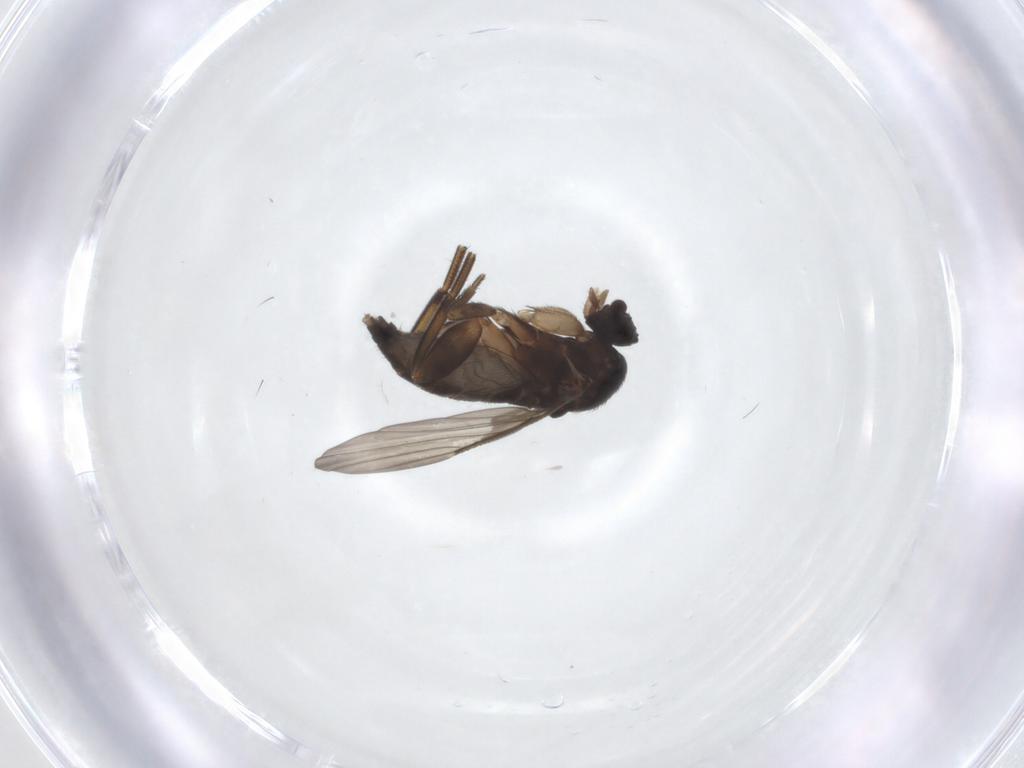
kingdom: Animalia
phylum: Arthropoda
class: Insecta
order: Diptera
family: Phoridae
